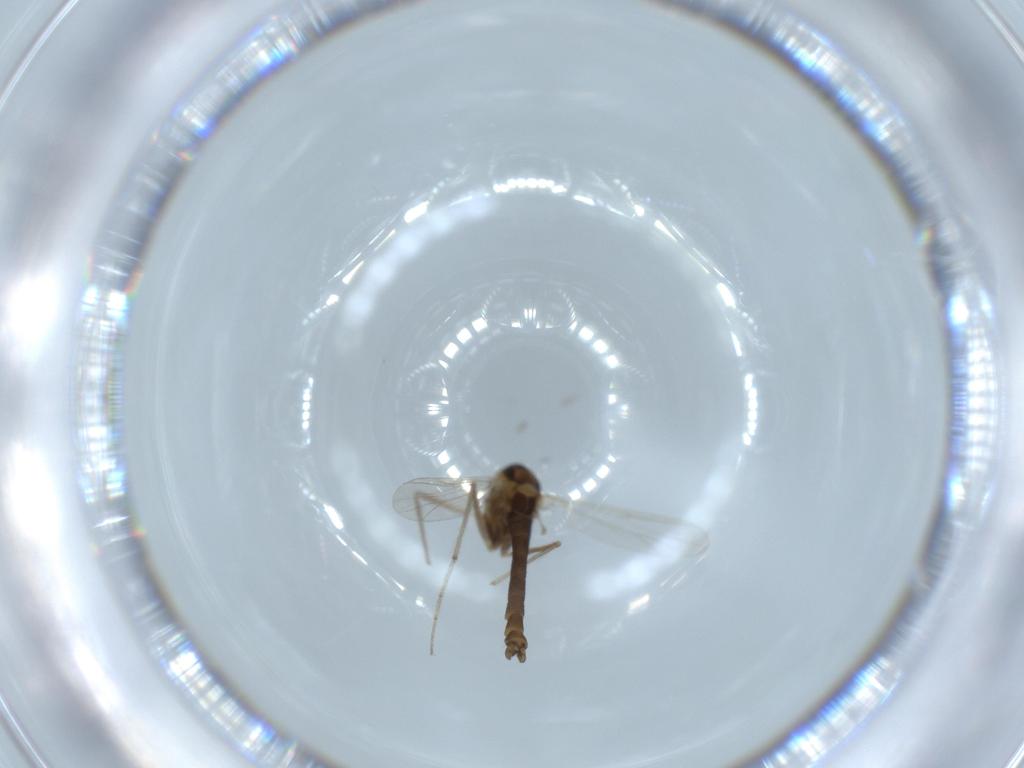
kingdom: Animalia
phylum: Arthropoda
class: Insecta
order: Diptera
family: Chironomidae
